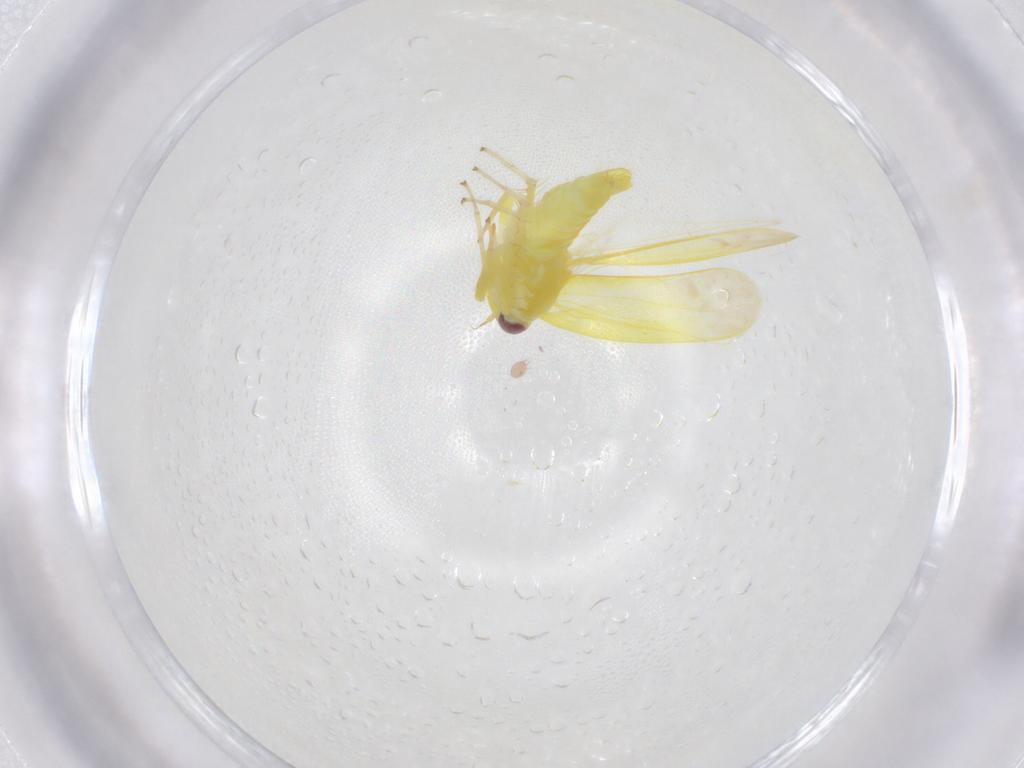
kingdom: Animalia
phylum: Arthropoda
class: Insecta
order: Hemiptera
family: Cicadellidae
